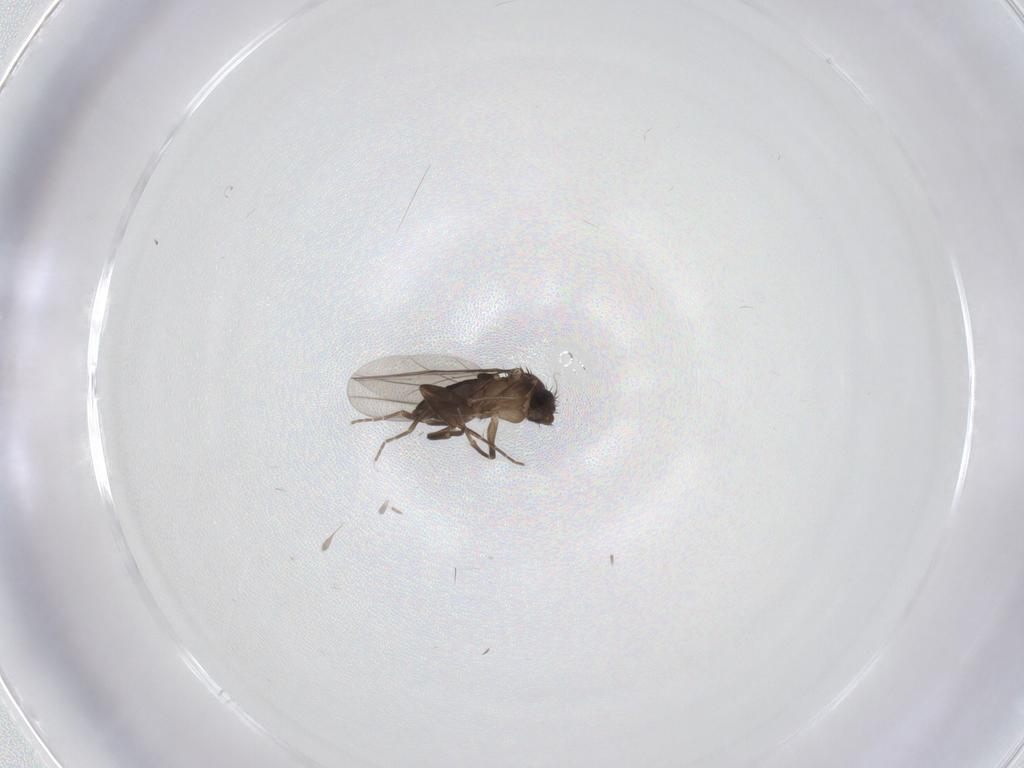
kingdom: Animalia
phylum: Arthropoda
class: Insecta
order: Diptera
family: Phoridae
